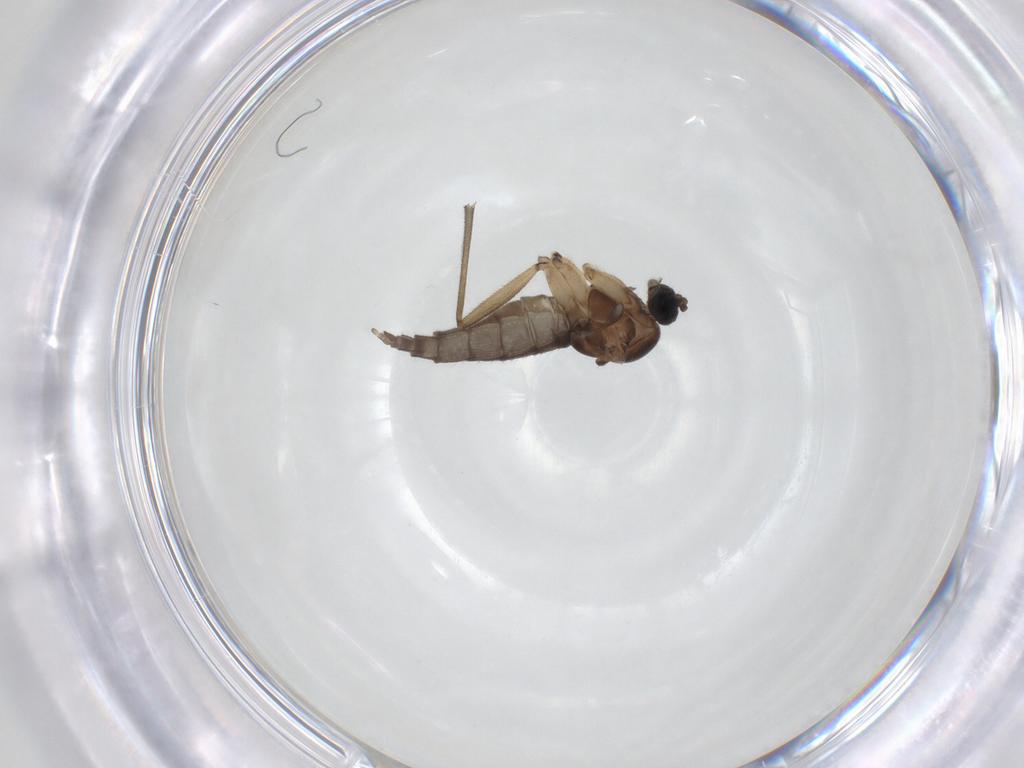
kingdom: Animalia
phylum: Arthropoda
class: Insecta
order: Diptera
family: Sciaridae
